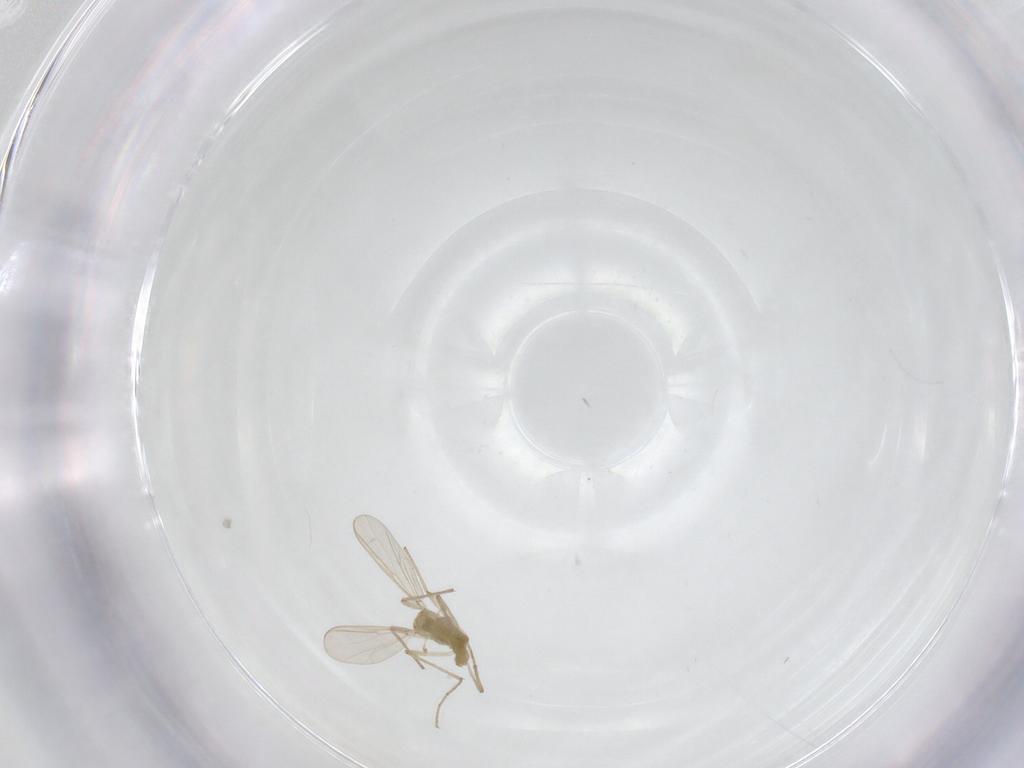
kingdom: Animalia
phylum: Arthropoda
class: Insecta
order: Diptera
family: Chironomidae
